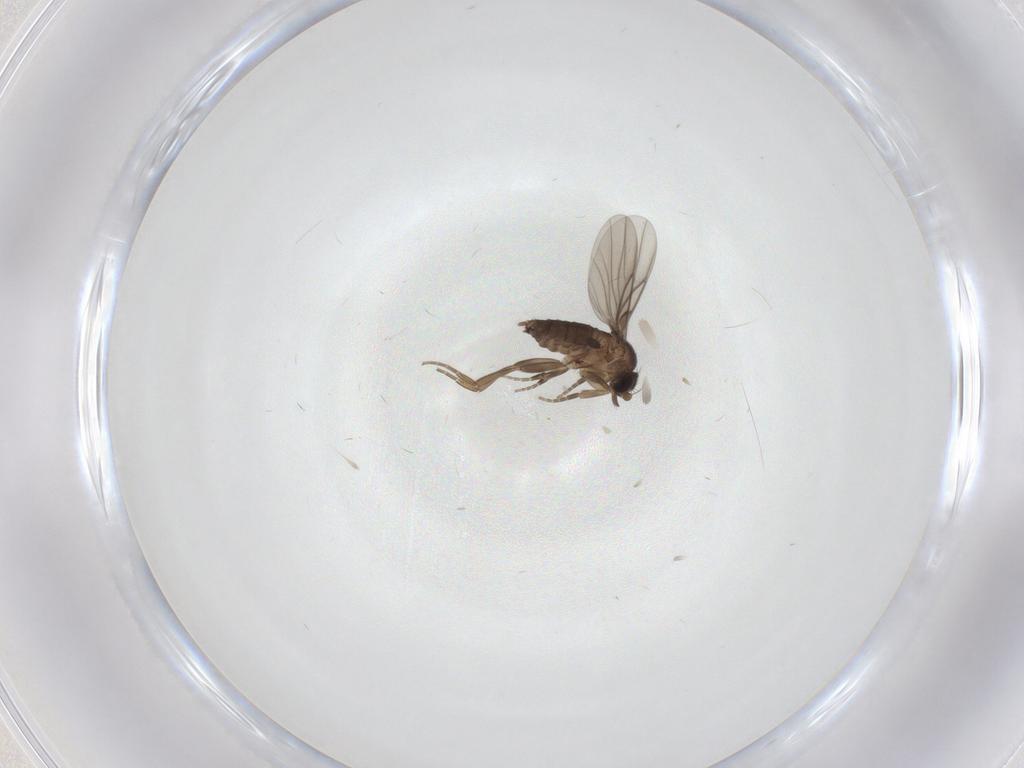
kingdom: Animalia
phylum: Arthropoda
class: Insecta
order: Diptera
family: Phoridae
